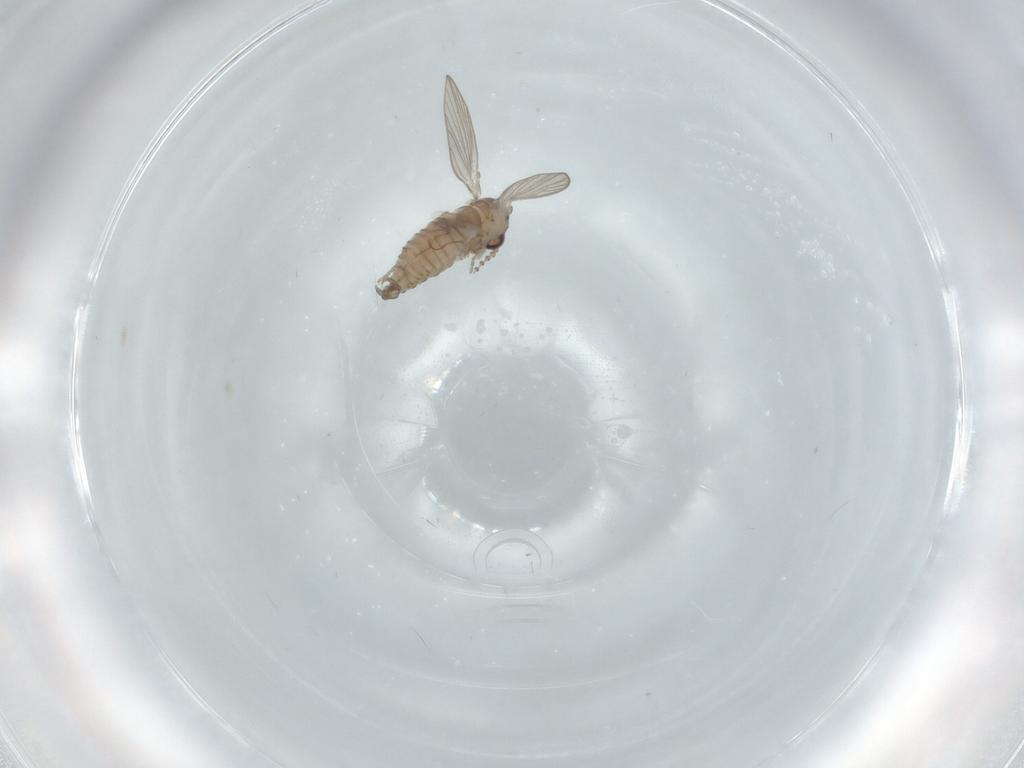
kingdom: Animalia
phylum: Arthropoda
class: Insecta
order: Diptera
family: Psychodidae
